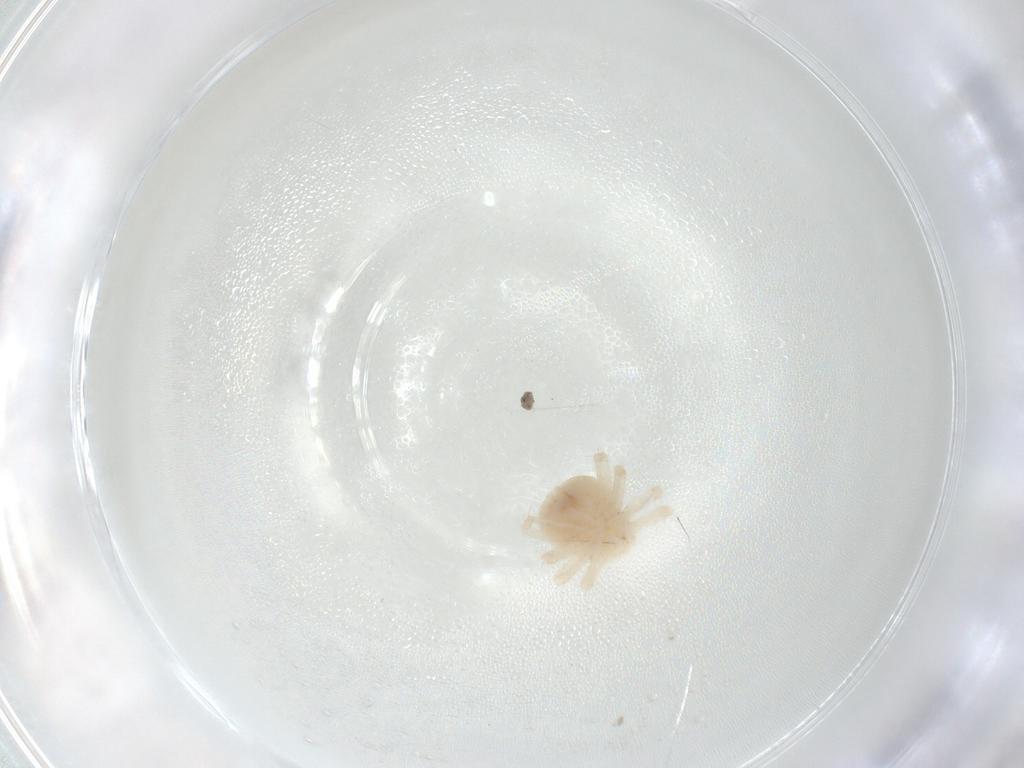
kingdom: Animalia
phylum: Arthropoda
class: Arachnida
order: Trombidiformes
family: Anystidae
